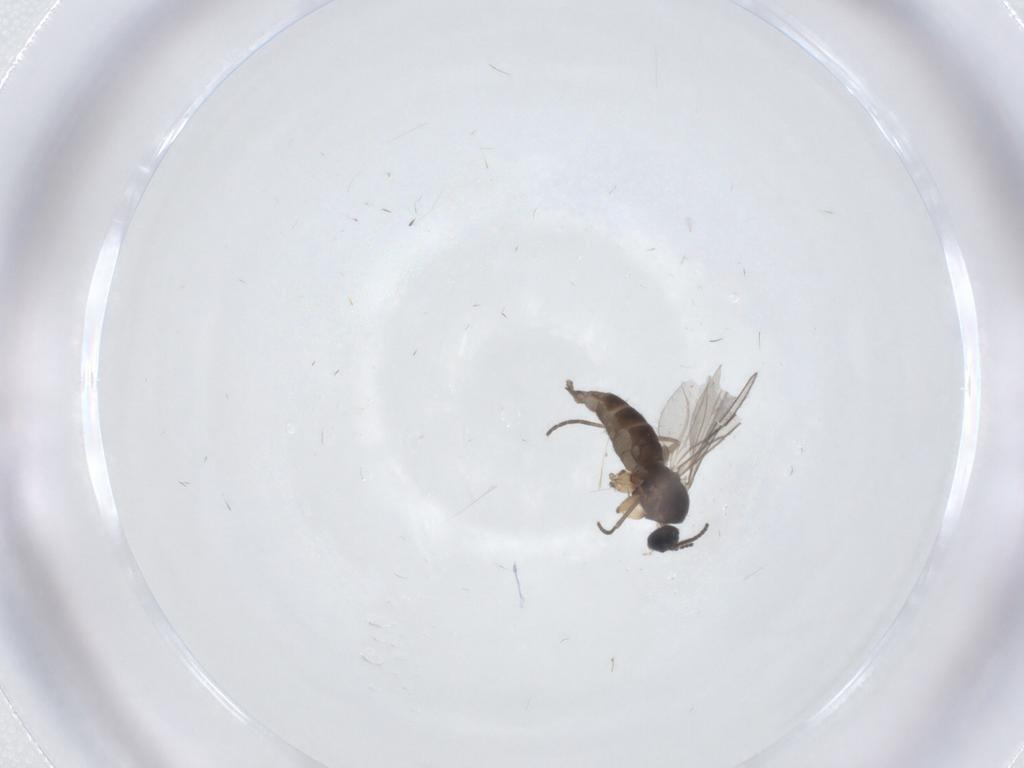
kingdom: Animalia
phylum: Arthropoda
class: Insecta
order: Diptera
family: Sciaridae
